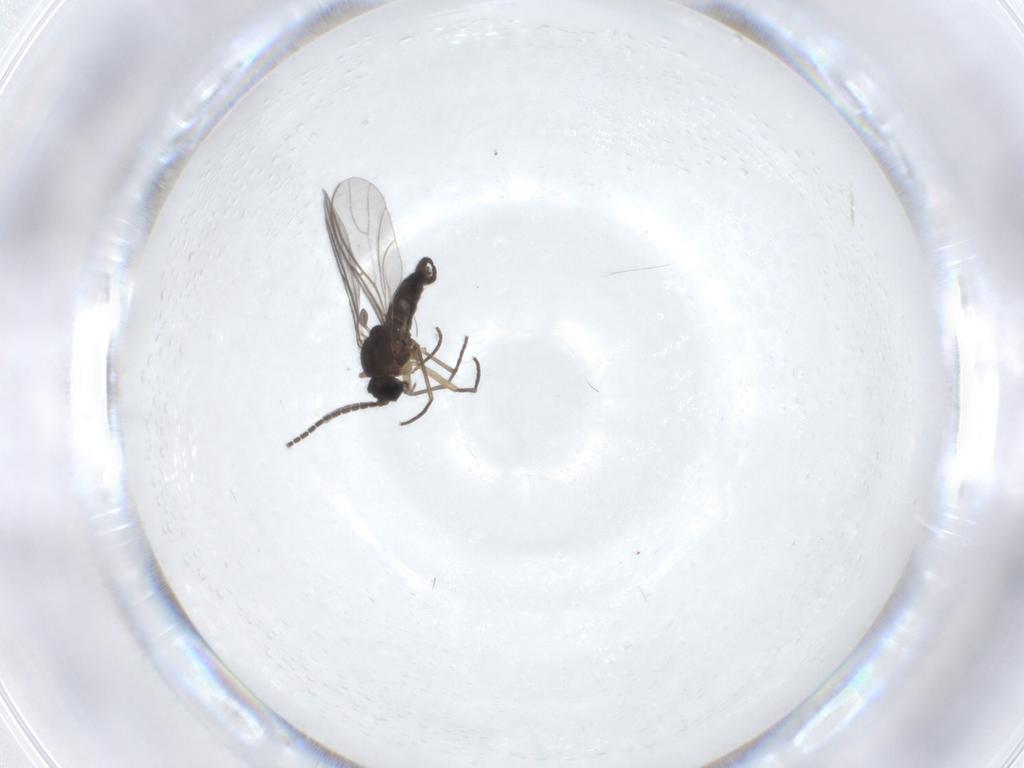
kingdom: Animalia
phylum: Arthropoda
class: Insecta
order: Diptera
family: Sciaridae
